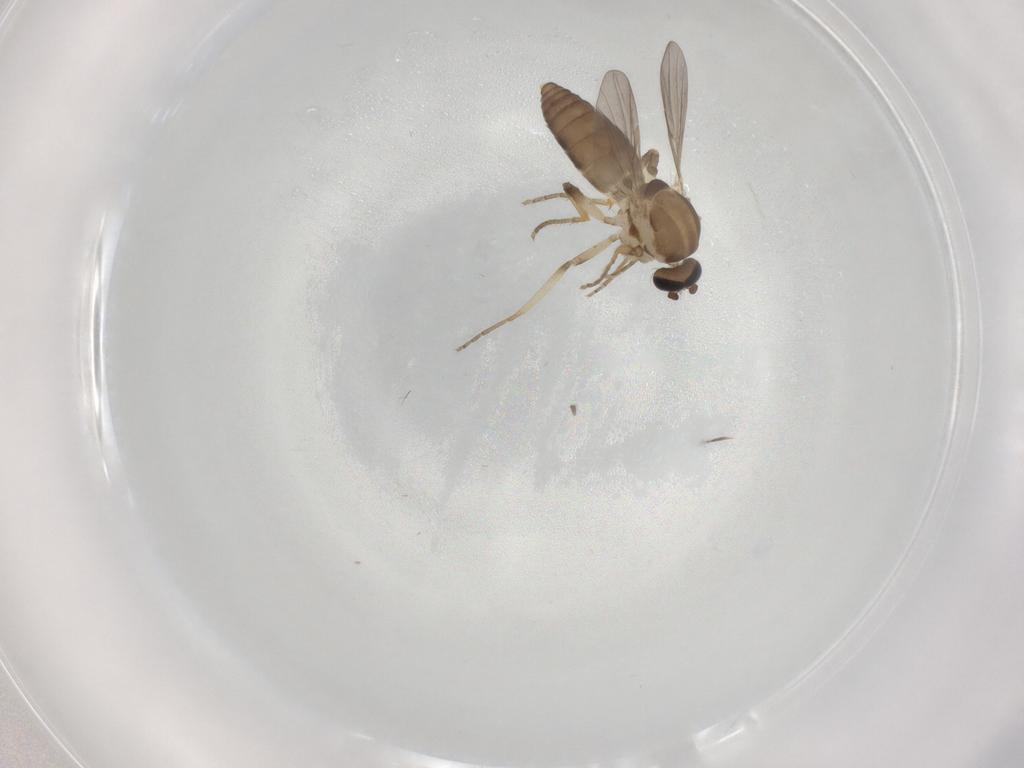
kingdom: Animalia
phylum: Arthropoda
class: Insecta
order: Diptera
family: Ceratopogonidae
